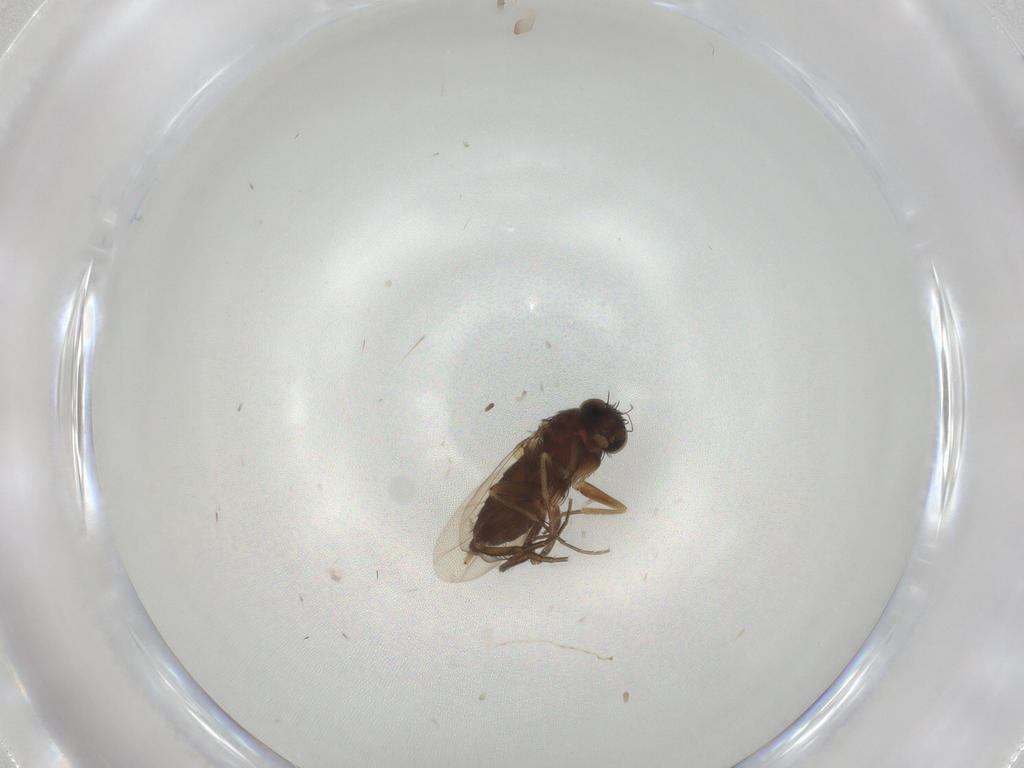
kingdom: Animalia
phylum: Arthropoda
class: Insecta
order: Diptera
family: Phoridae
